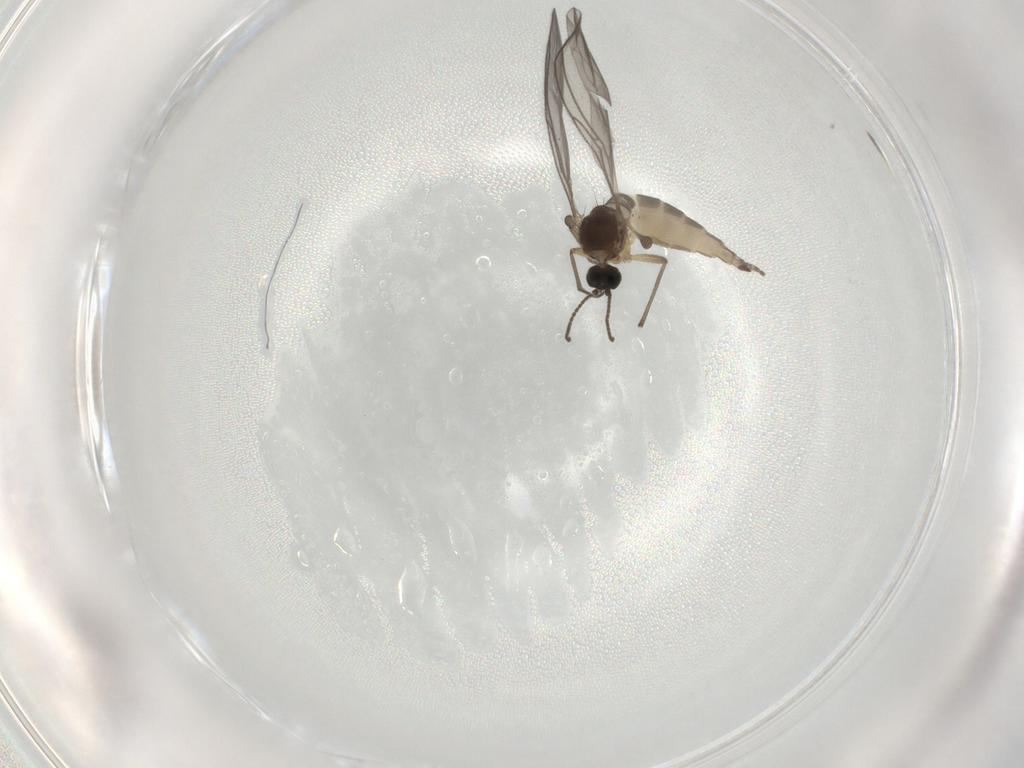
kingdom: Animalia
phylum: Arthropoda
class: Insecta
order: Diptera
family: Sciaridae
